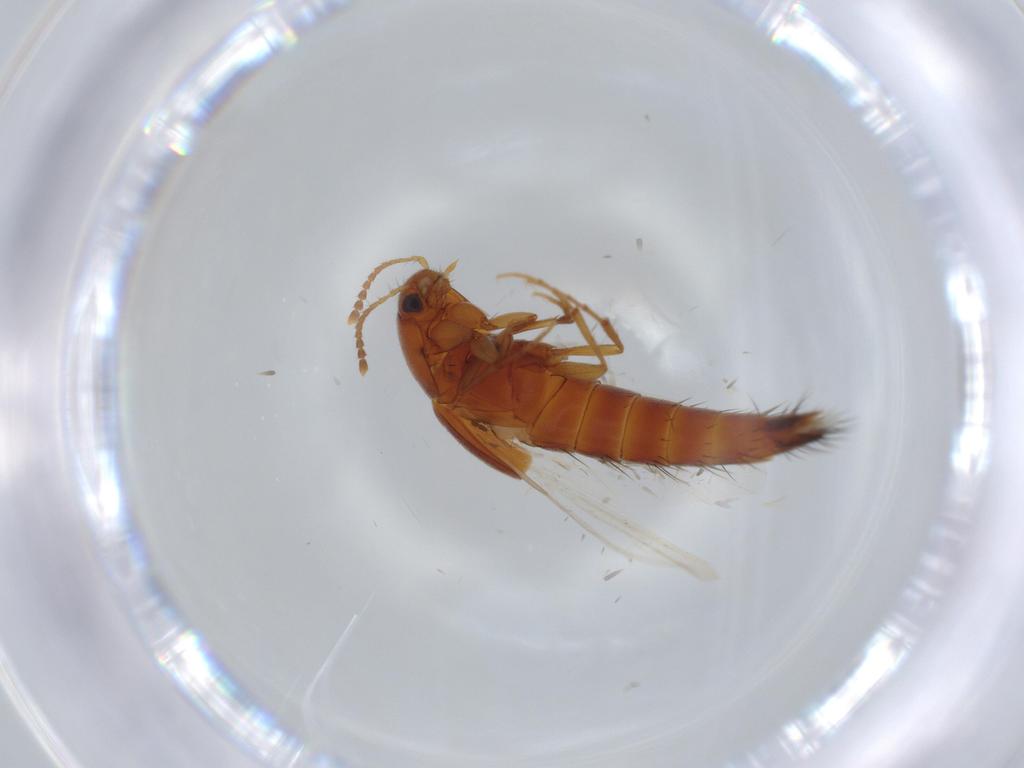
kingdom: Animalia
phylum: Arthropoda
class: Insecta
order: Coleoptera
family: Staphylinidae
